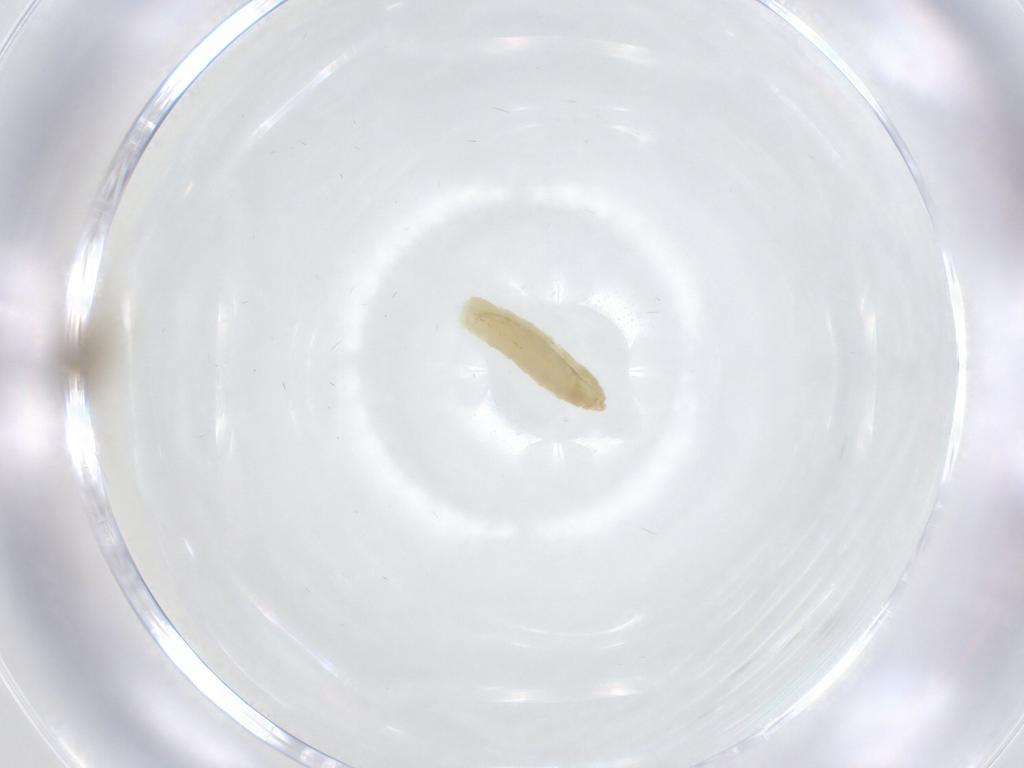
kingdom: Animalia
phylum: Arthropoda
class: Insecta
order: Diptera
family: Chironomidae
